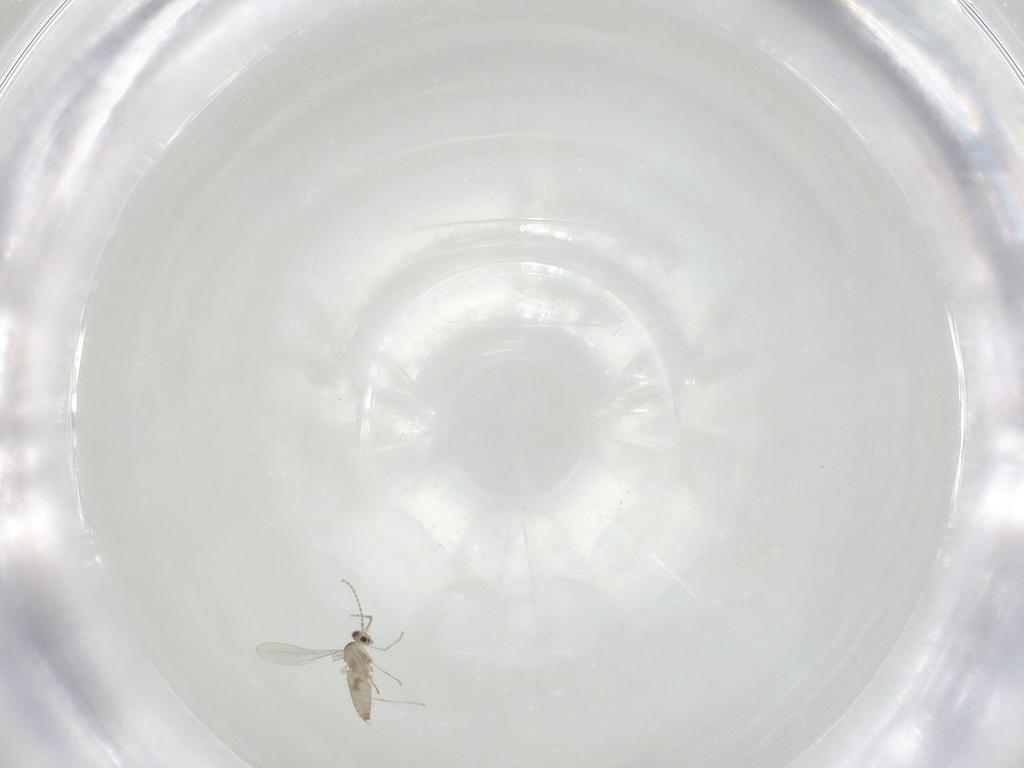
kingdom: Animalia
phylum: Arthropoda
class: Insecta
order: Diptera
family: Cecidomyiidae
